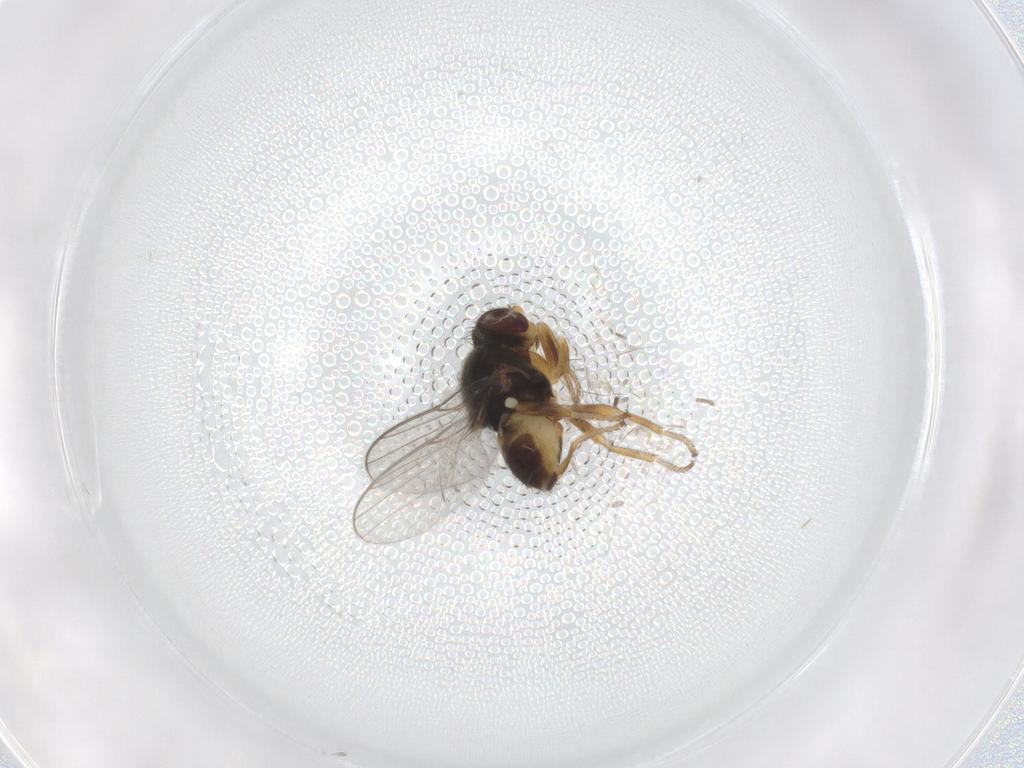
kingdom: Animalia
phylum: Arthropoda
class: Insecta
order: Diptera
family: Chloropidae
